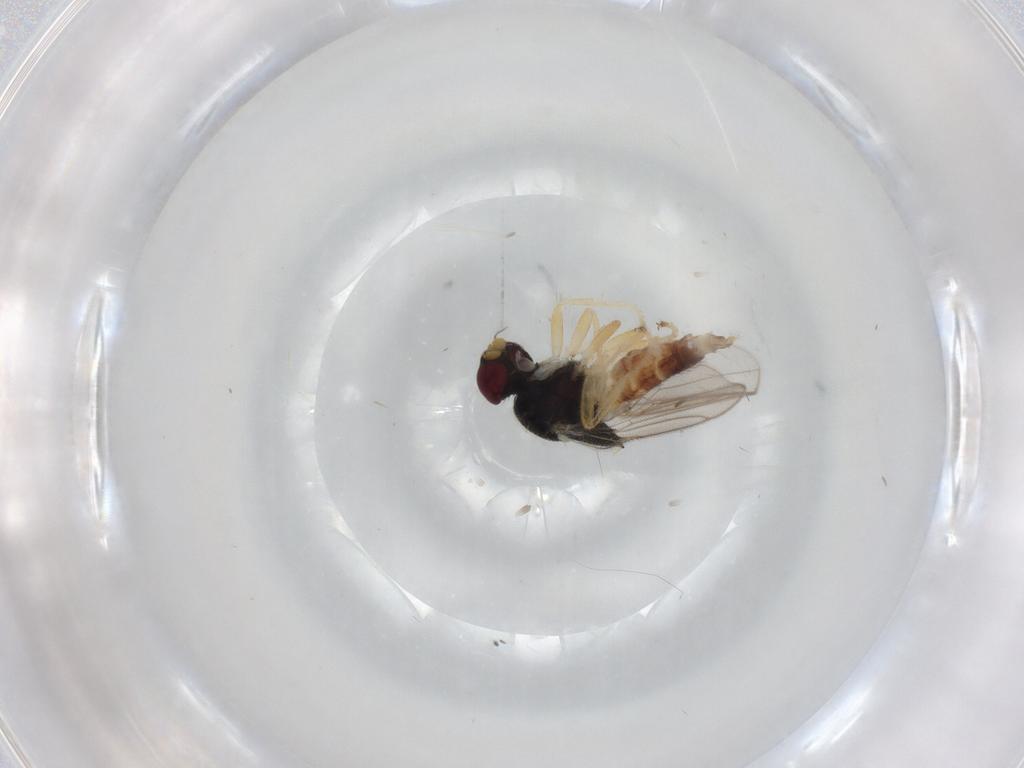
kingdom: Animalia
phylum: Arthropoda
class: Insecta
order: Diptera
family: Chloropidae
